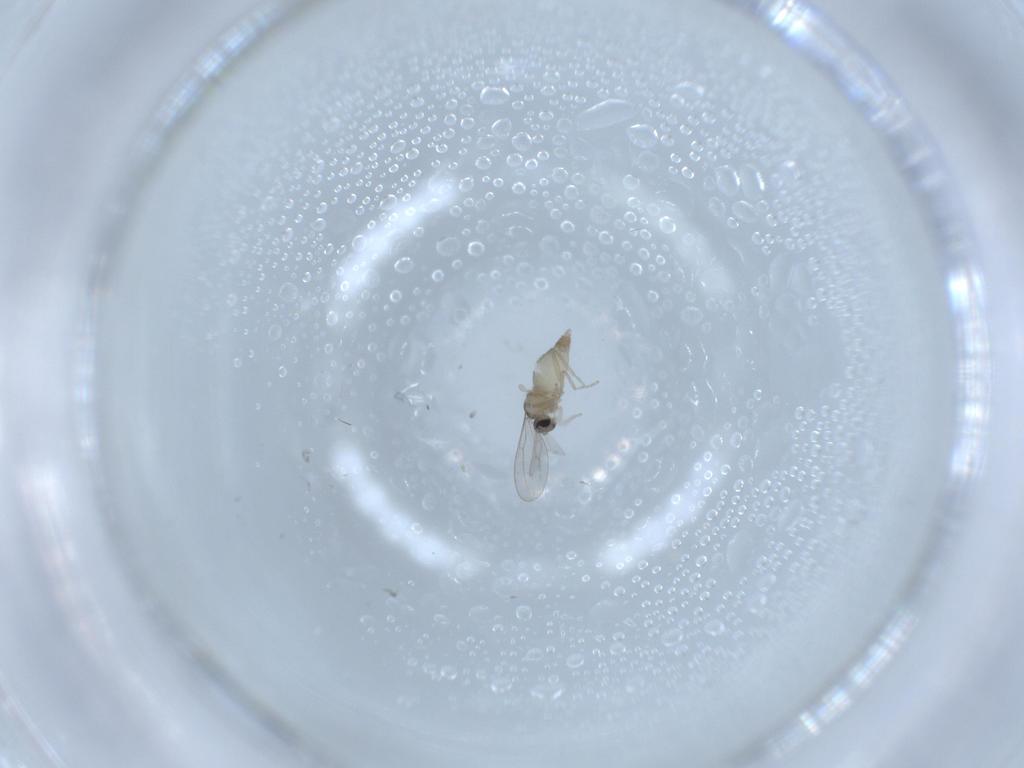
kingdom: Animalia
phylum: Arthropoda
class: Insecta
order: Diptera
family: Cecidomyiidae
